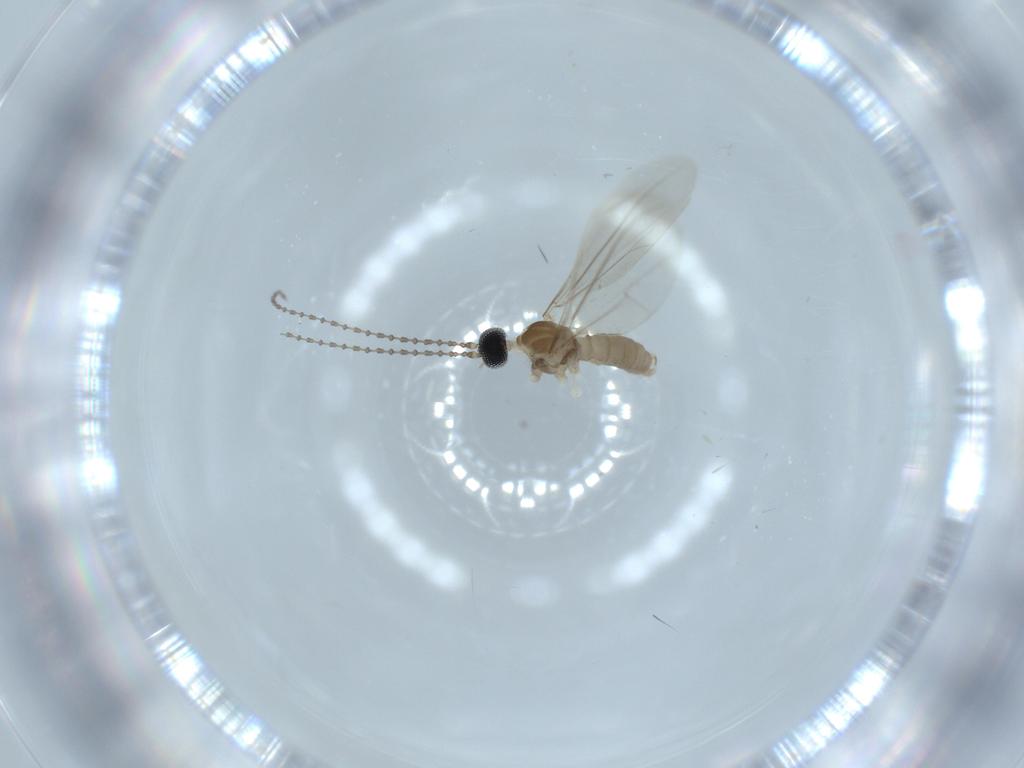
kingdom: Animalia
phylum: Arthropoda
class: Insecta
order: Diptera
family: Cecidomyiidae
